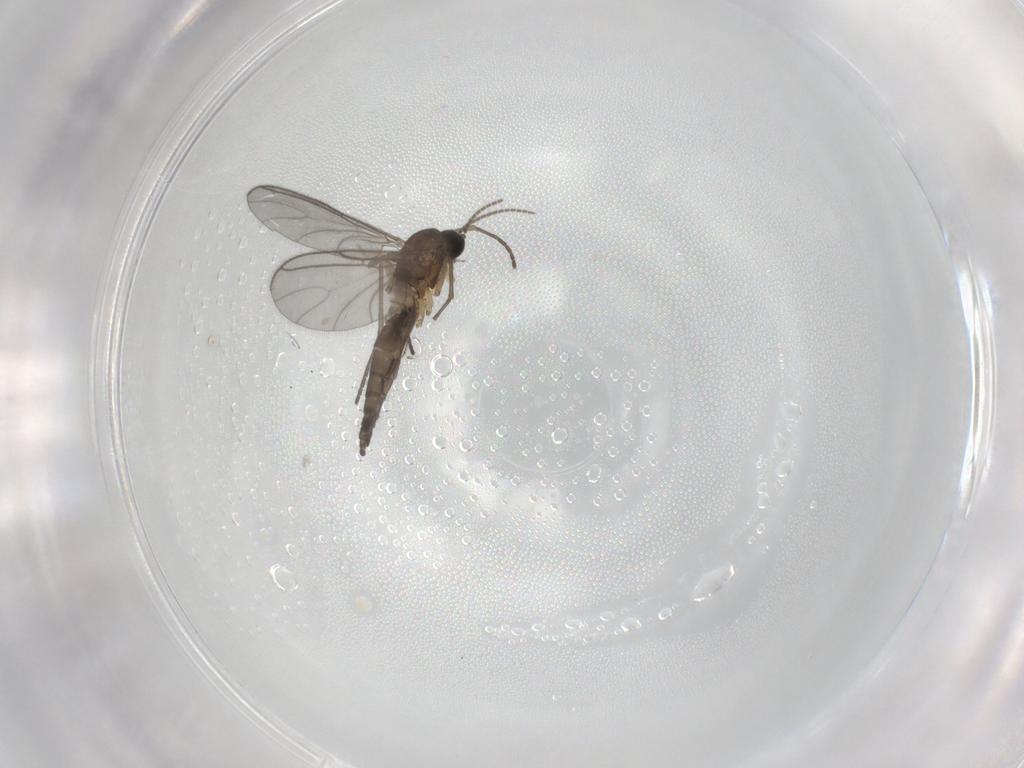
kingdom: Animalia
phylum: Arthropoda
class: Insecta
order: Diptera
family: Sciaridae
